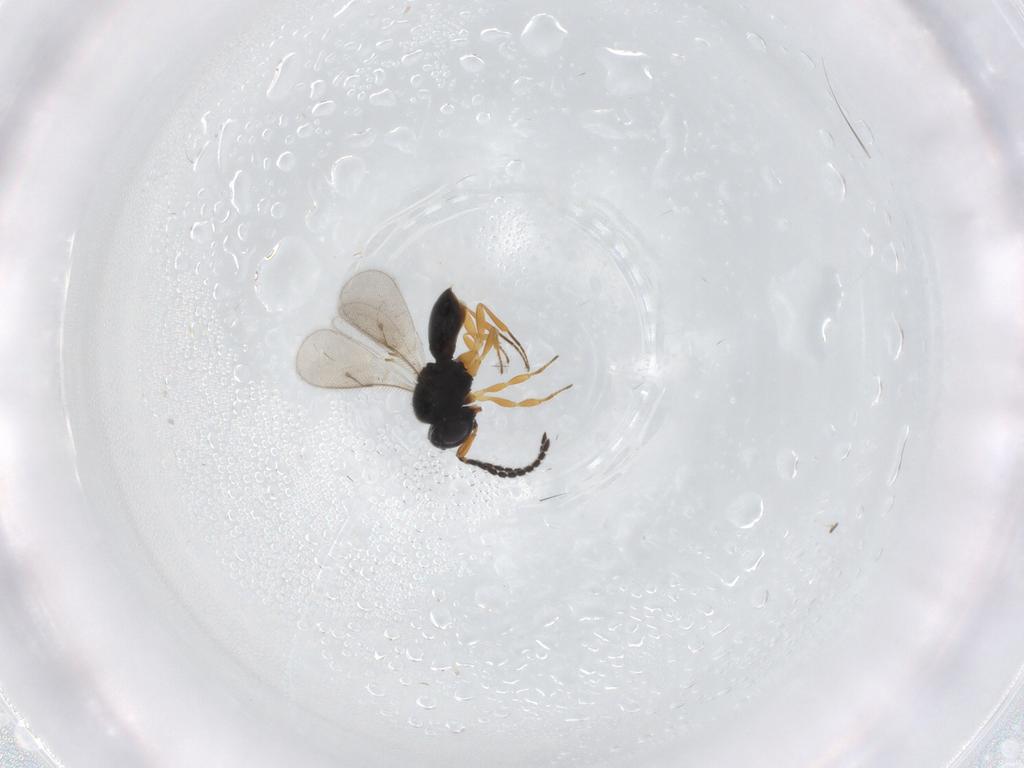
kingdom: Animalia
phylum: Arthropoda
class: Insecta
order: Hymenoptera
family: Scelionidae
